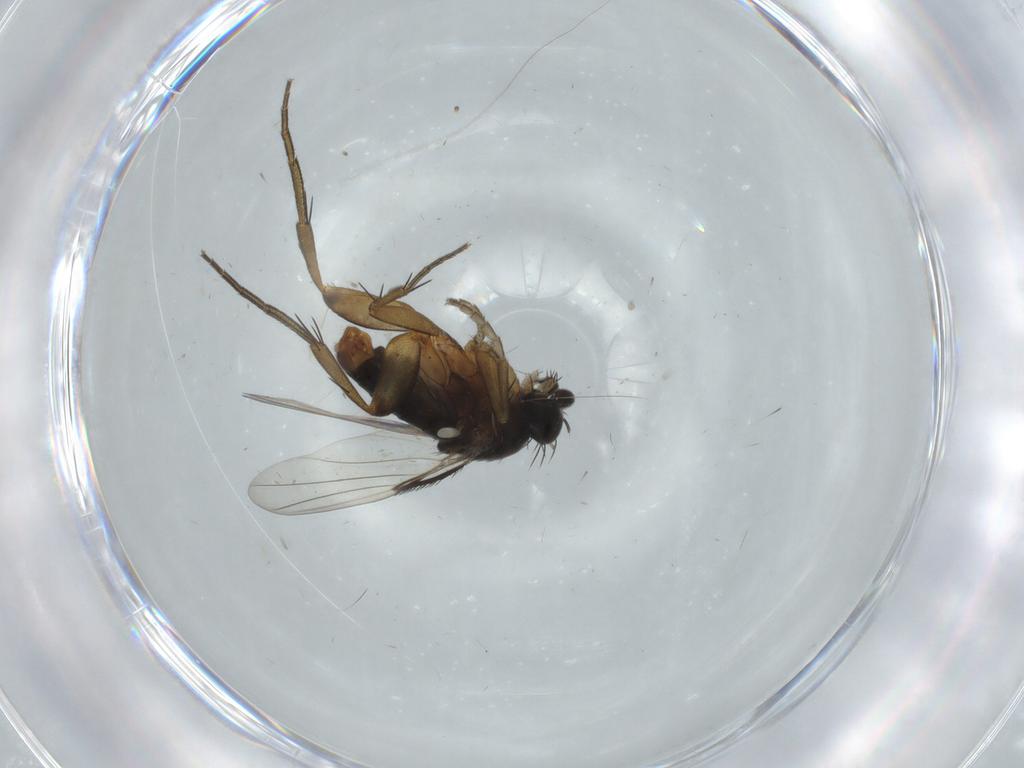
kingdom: Animalia
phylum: Arthropoda
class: Insecta
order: Diptera
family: Phoridae
